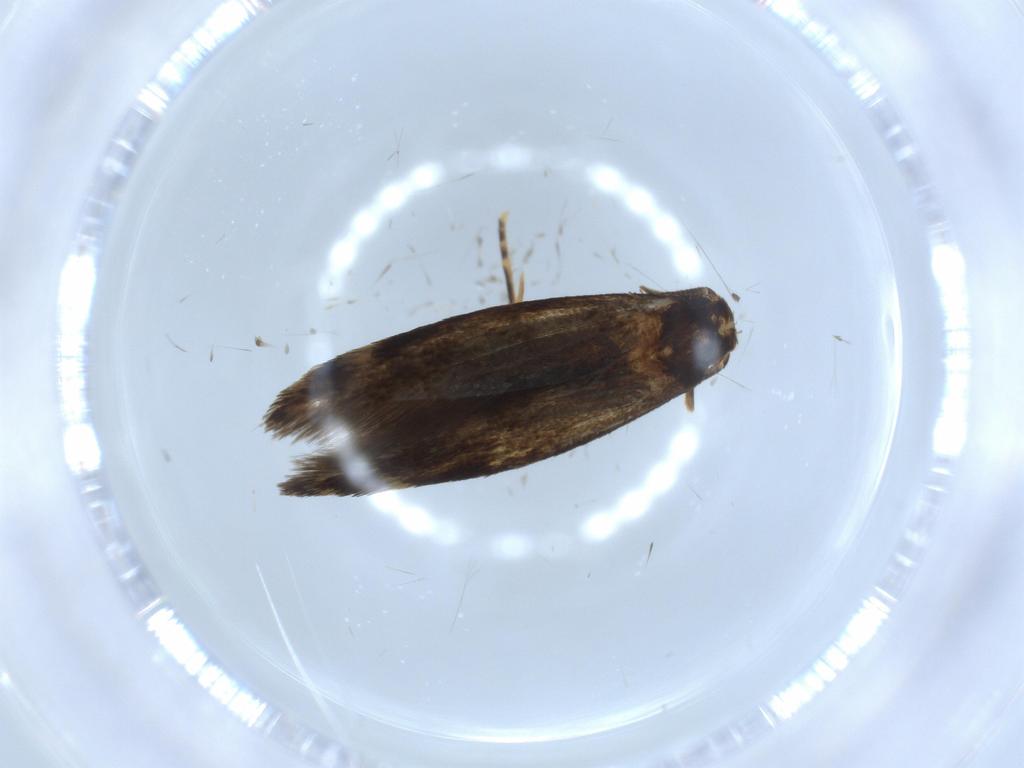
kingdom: Animalia
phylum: Arthropoda
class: Insecta
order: Lepidoptera
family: Tineidae
